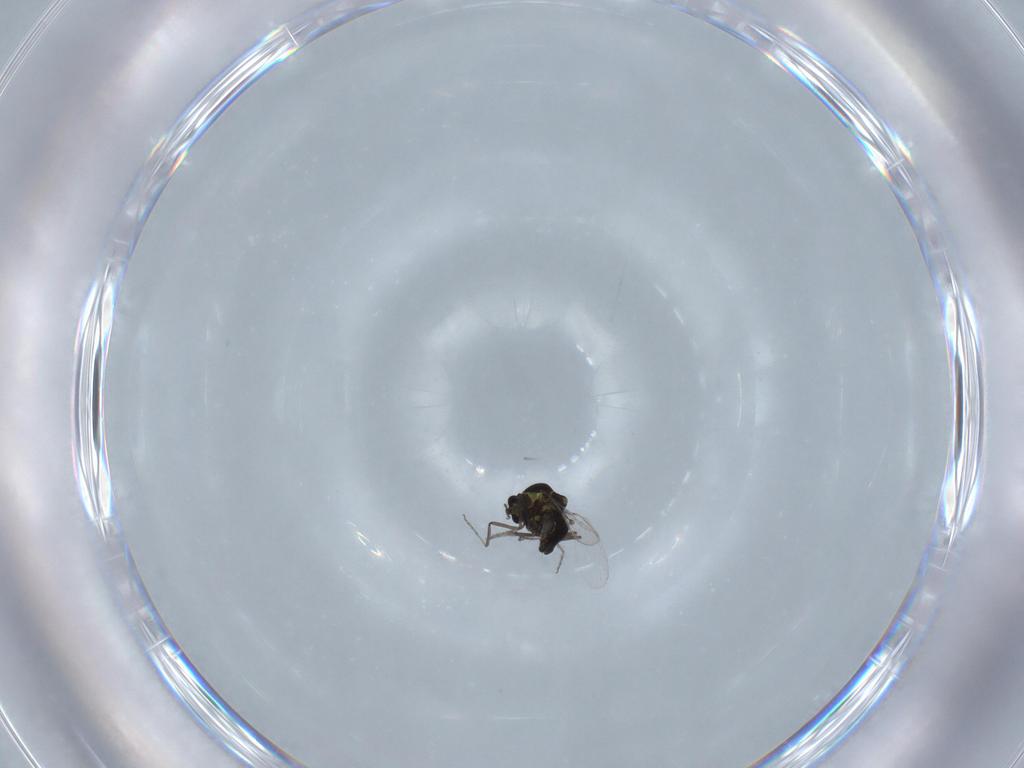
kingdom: Animalia
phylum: Arthropoda
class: Insecta
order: Diptera
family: Ceratopogonidae
